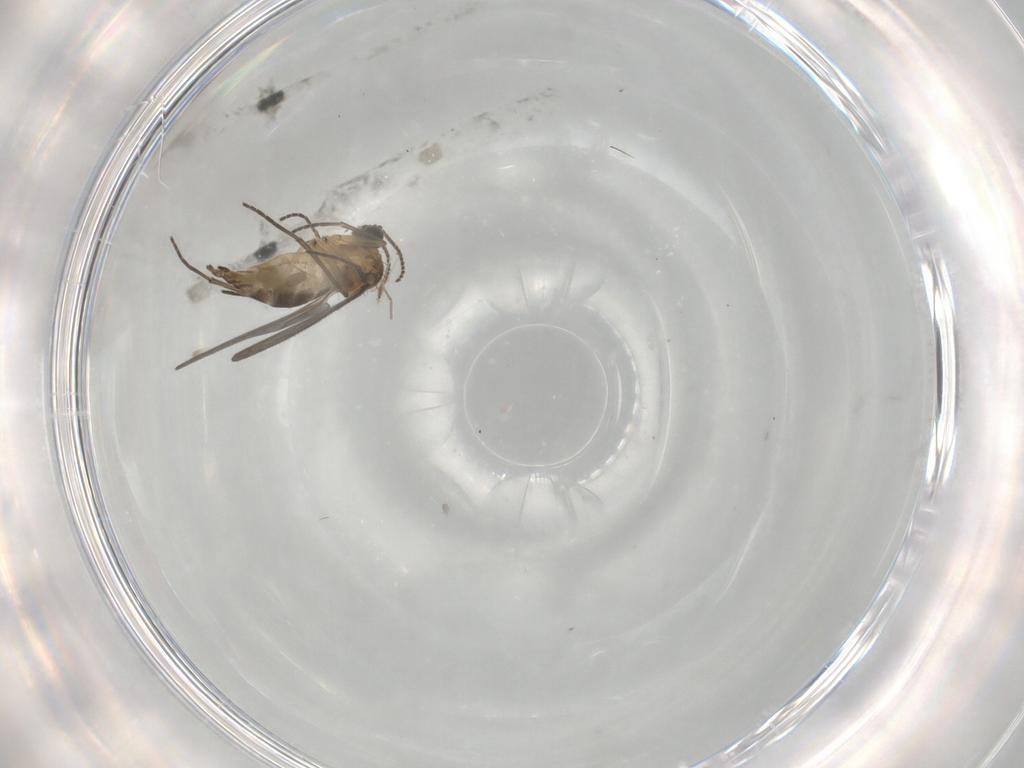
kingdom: Animalia
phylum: Arthropoda
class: Insecta
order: Diptera
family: Sciaridae
